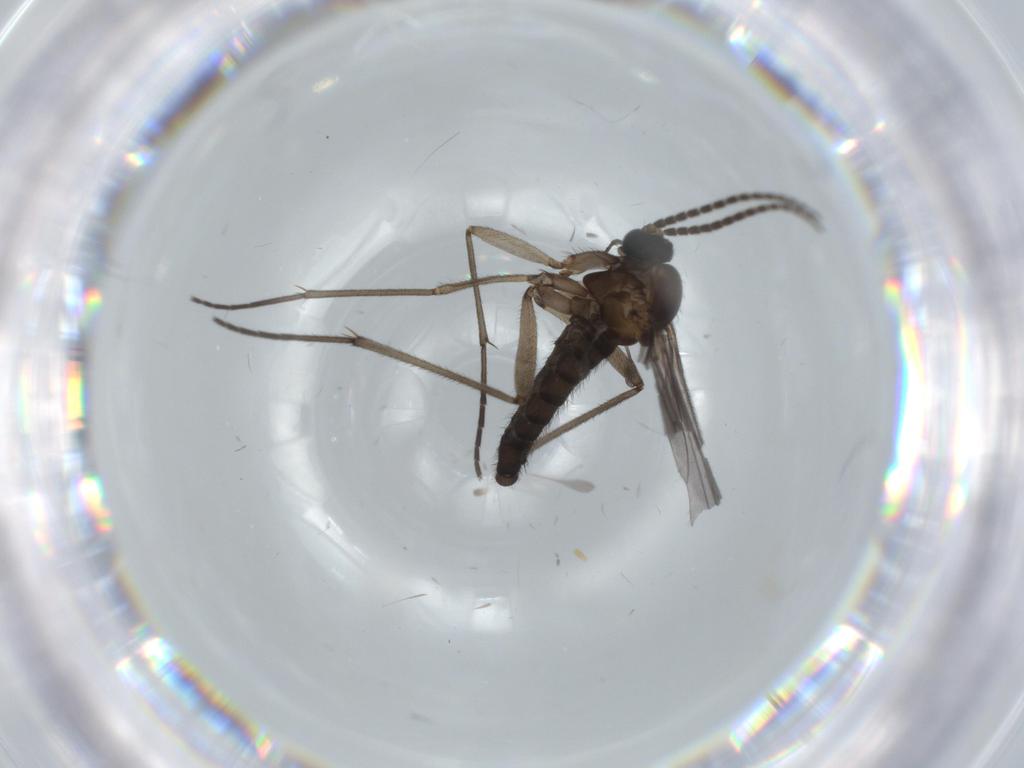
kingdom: Animalia
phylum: Arthropoda
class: Insecta
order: Diptera
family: Sciaridae
